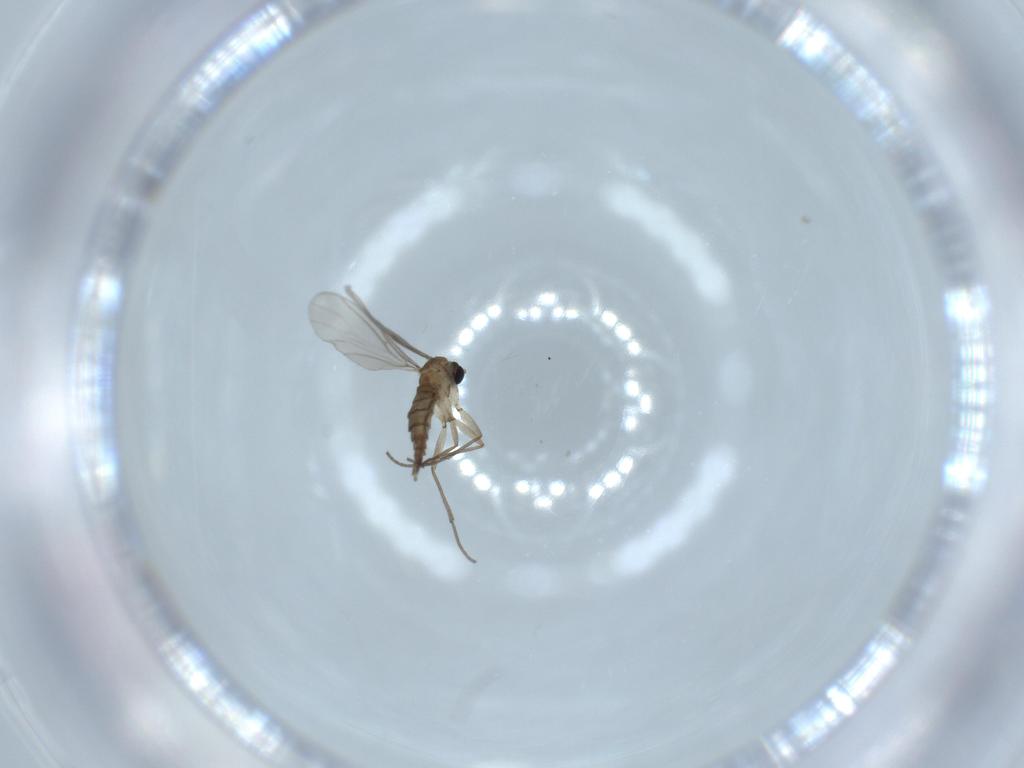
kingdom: Animalia
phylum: Arthropoda
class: Insecta
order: Diptera
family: Sciaridae
